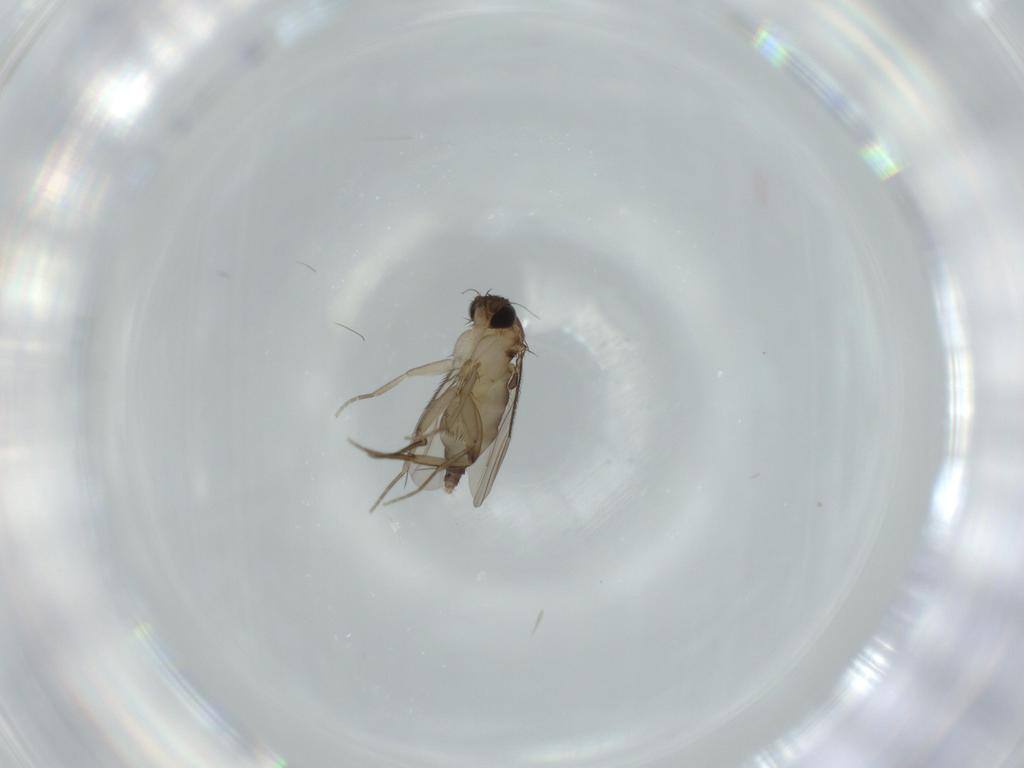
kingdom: Animalia
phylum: Arthropoda
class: Insecta
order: Diptera
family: Phoridae
